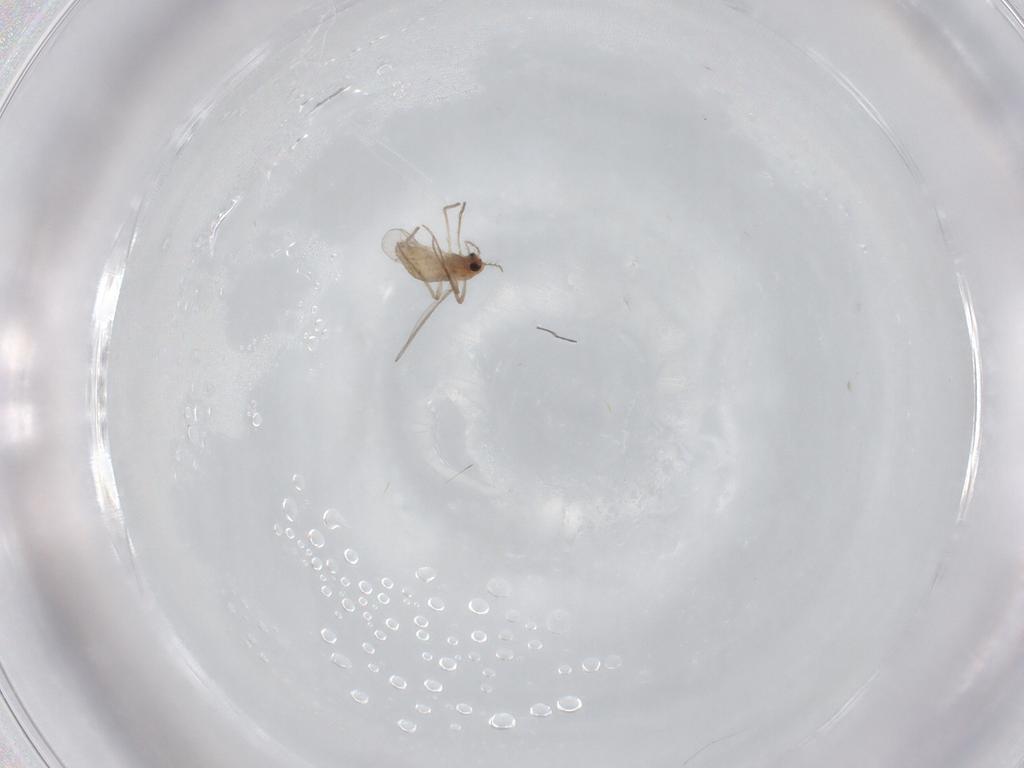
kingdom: Animalia
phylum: Arthropoda
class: Insecta
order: Diptera
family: Chironomidae
